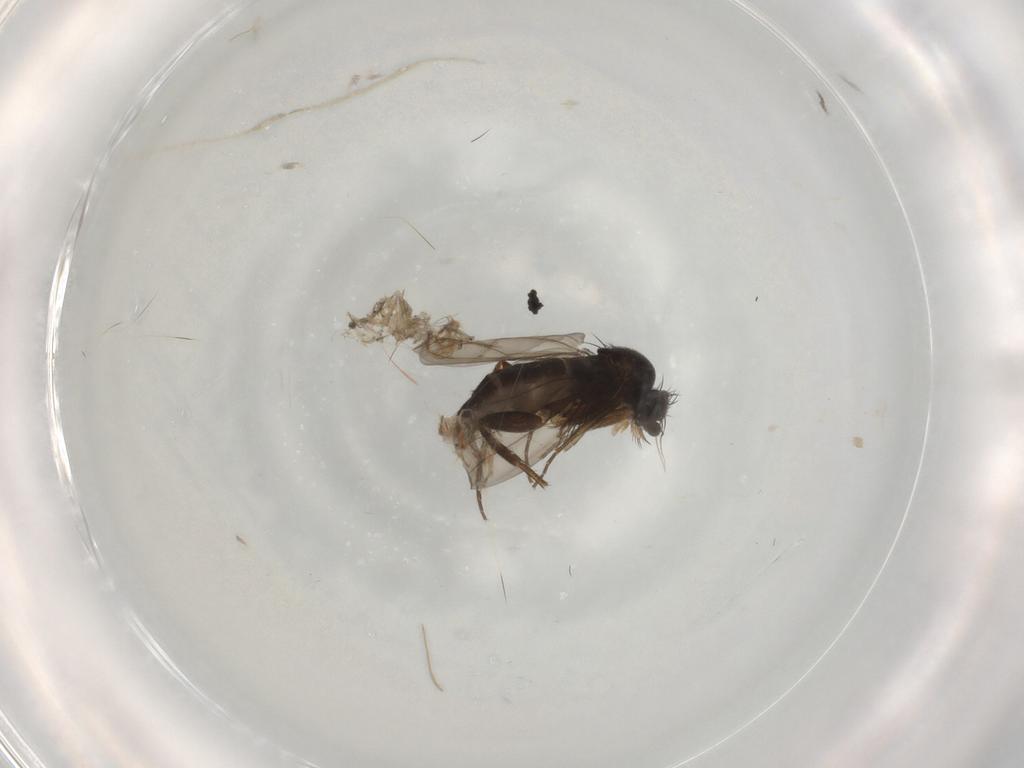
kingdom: Animalia
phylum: Arthropoda
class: Insecta
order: Diptera
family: Phoridae
